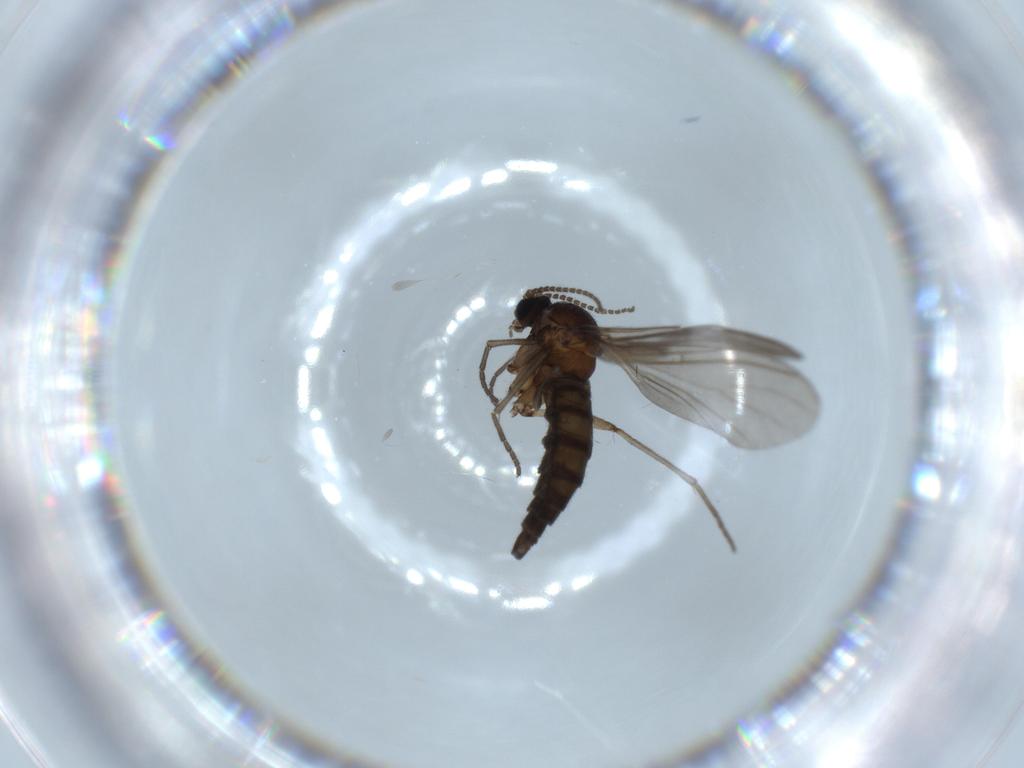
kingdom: Animalia
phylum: Arthropoda
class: Insecta
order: Diptera
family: Sciaridae
